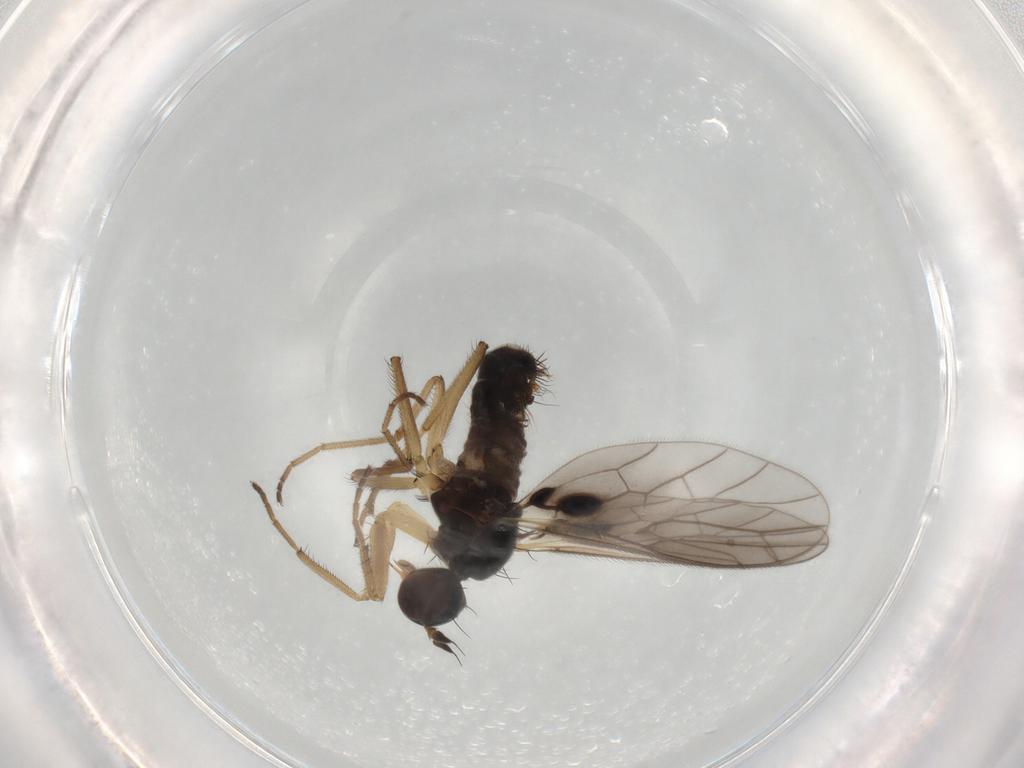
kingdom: Animalia
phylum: Arthropoda
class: Insecta
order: Diptera
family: Empididae
